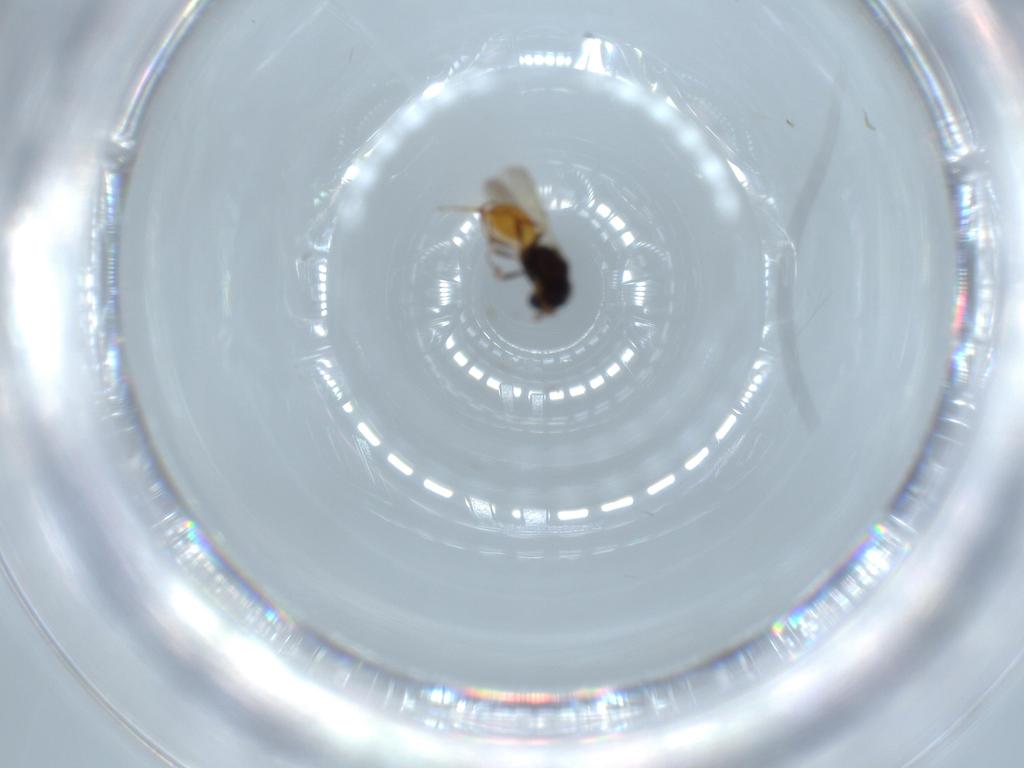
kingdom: Animalia
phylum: Arthropoda
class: Insecta
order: Hymenoptera
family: Scelionidae
